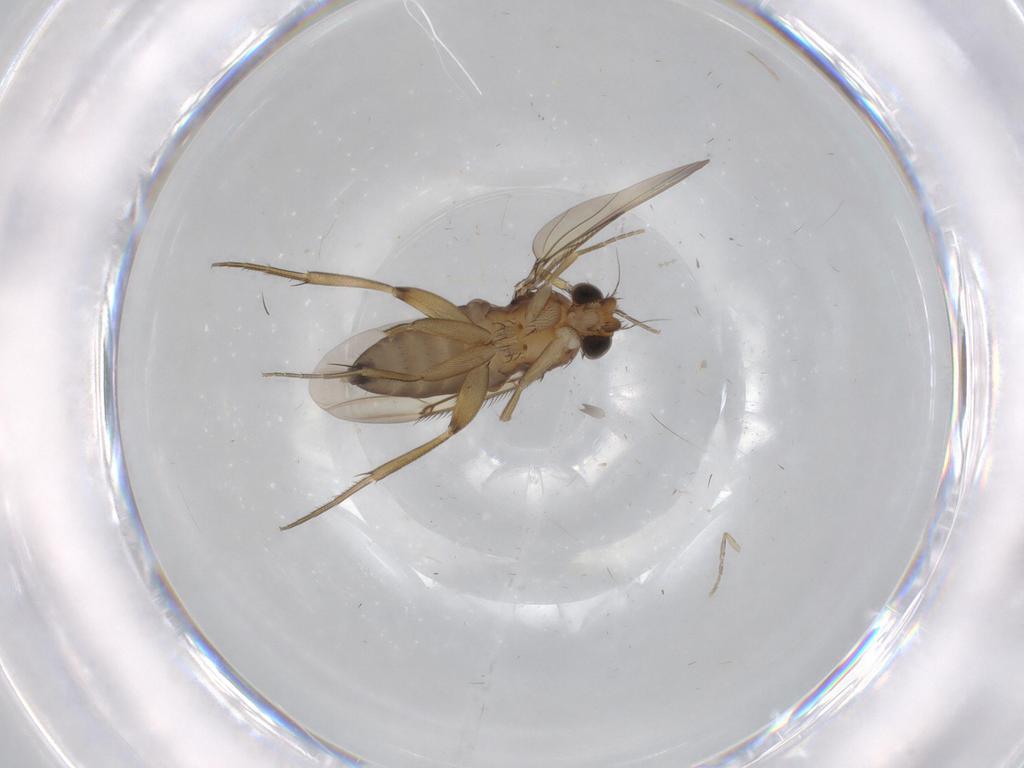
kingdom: Animalia
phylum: Arthropoda
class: Insecta
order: Diptera
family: Phoridae
